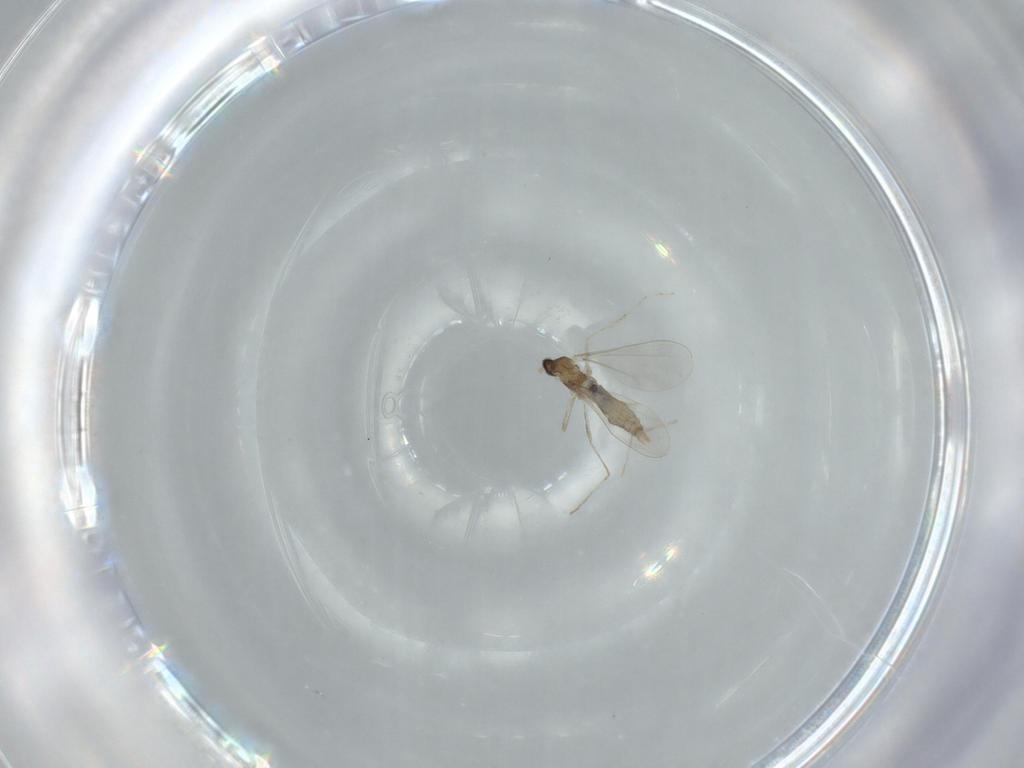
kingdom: Animalia
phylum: Arthropoda
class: Insecta
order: Diptera
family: Cecidomyiidae
